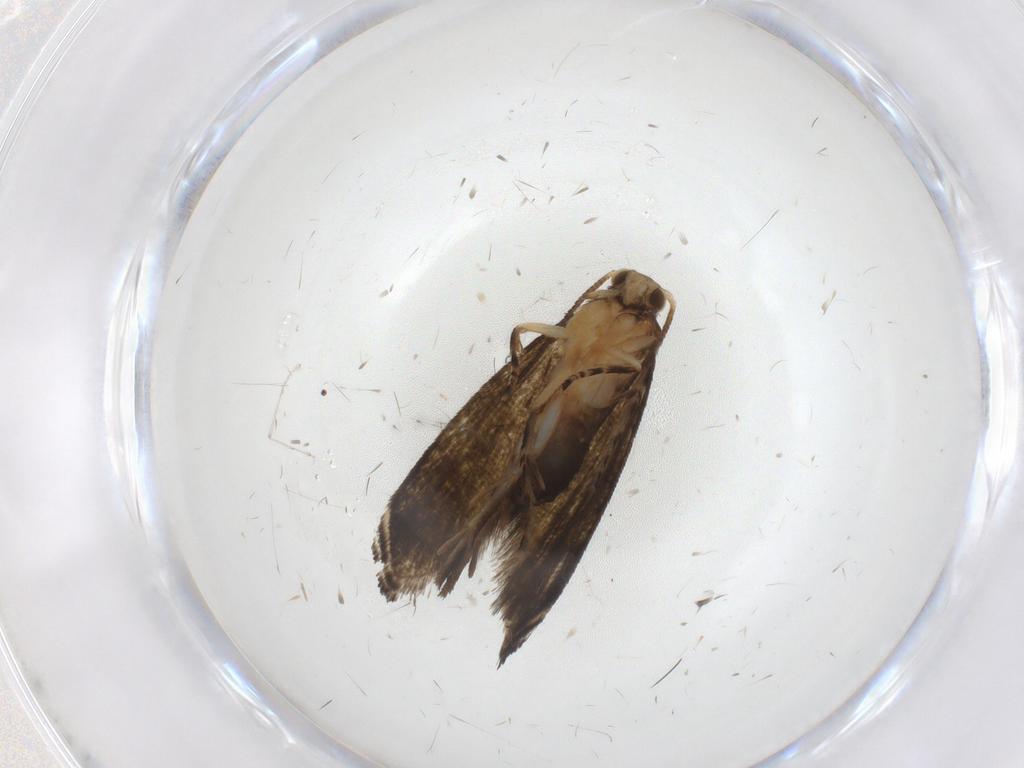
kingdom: Animalia
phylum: Arthropoda
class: Insecta
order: Lepidoptera
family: Crambidae
